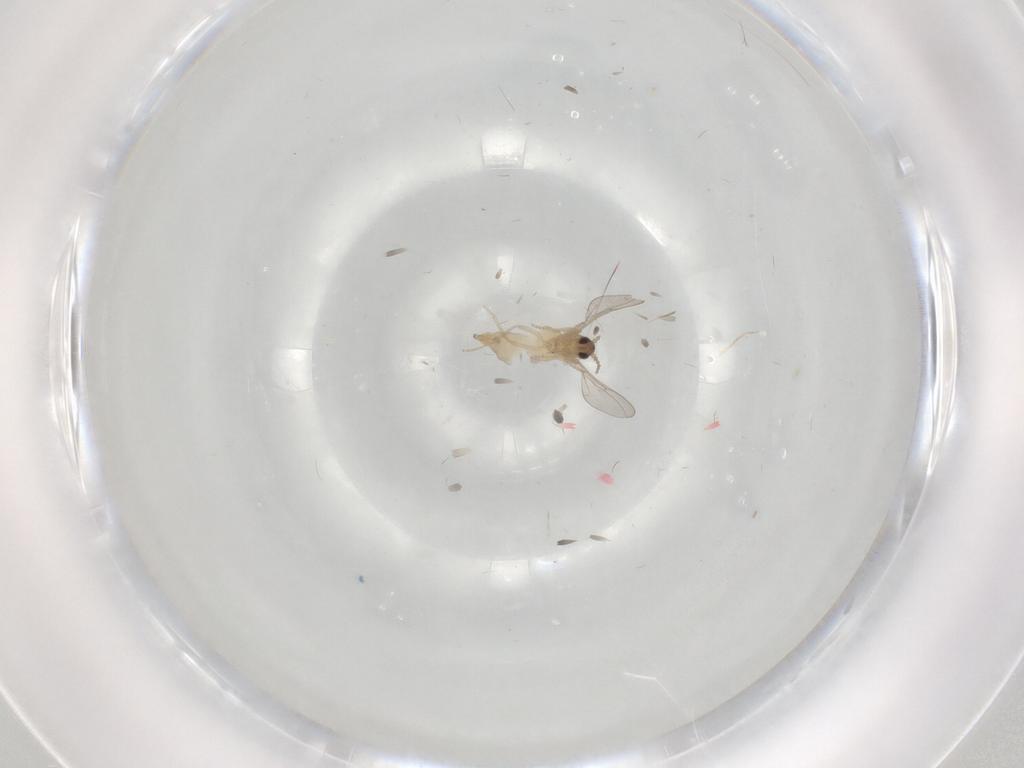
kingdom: Animalia
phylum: Arthropoda
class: Insecta
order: Diptera
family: Cecidomyiidae
